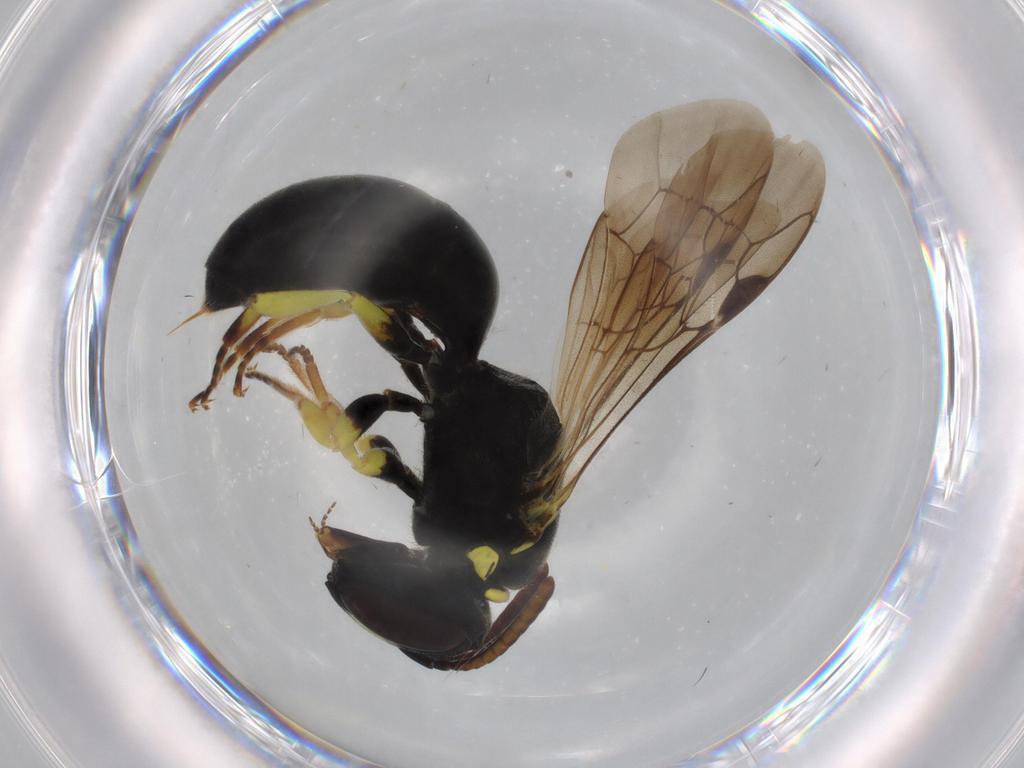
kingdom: Animalia
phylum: Arthropoda
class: Insecta
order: Hymenoptera
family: Colletidae
